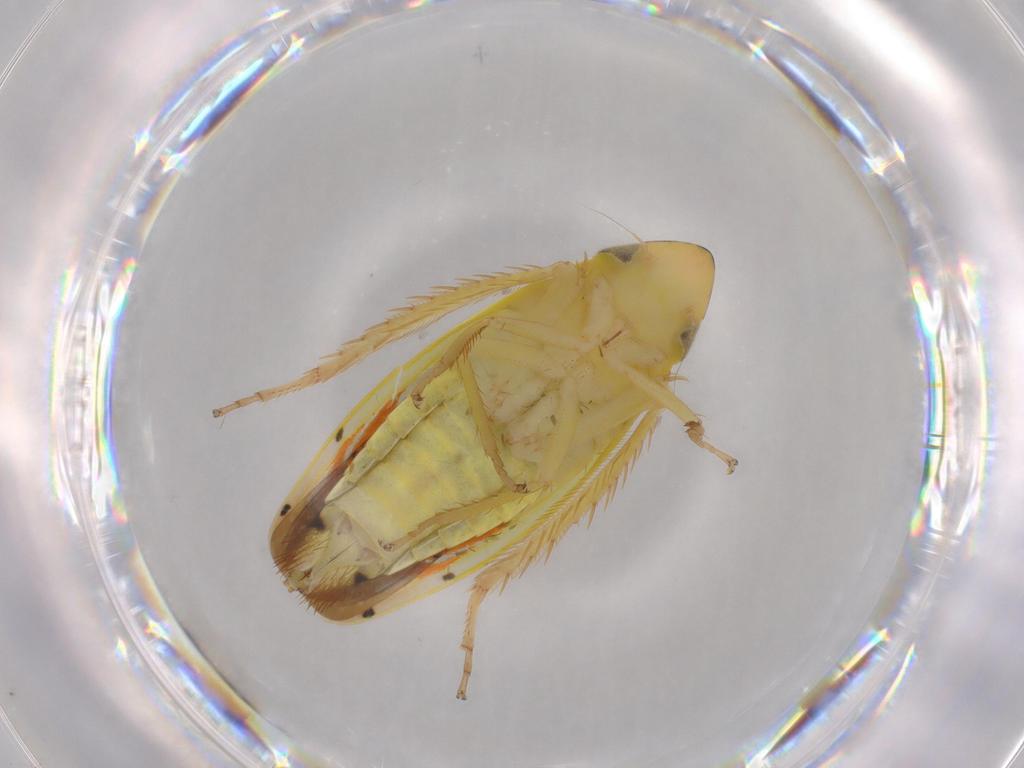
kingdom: Animalia
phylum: Arthropoda
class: Insecta
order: Hemiptera
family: Cicadellidae
